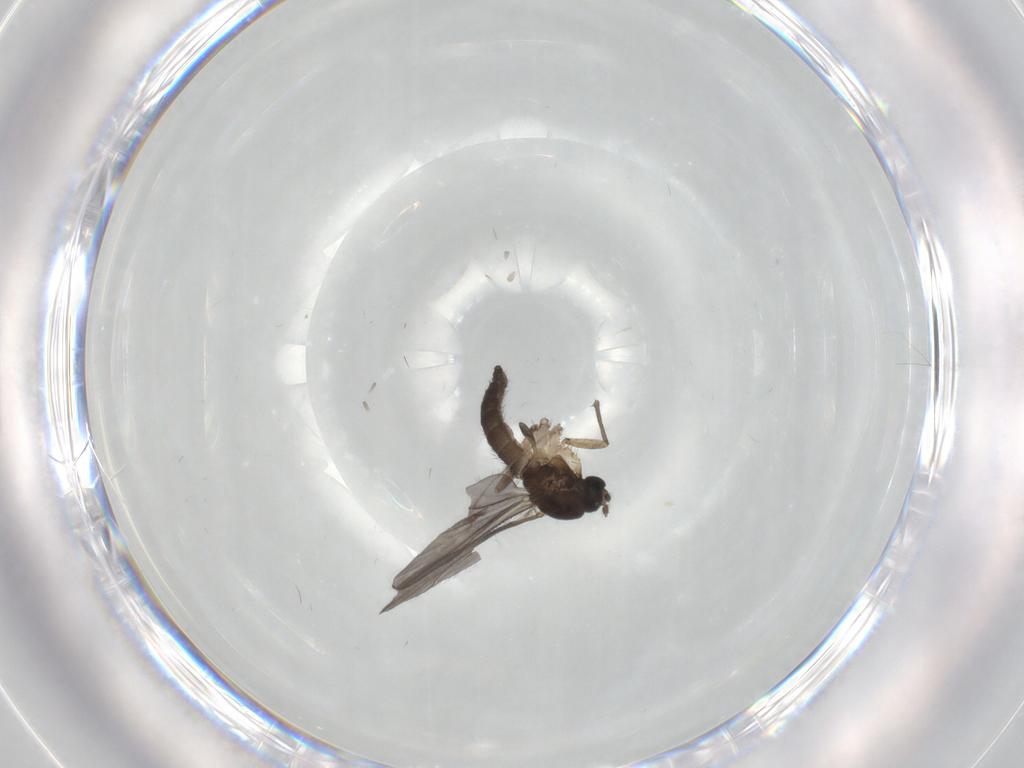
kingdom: Animalia
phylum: Arthropoda
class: Insecta
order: Diptera
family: Sciaridae
